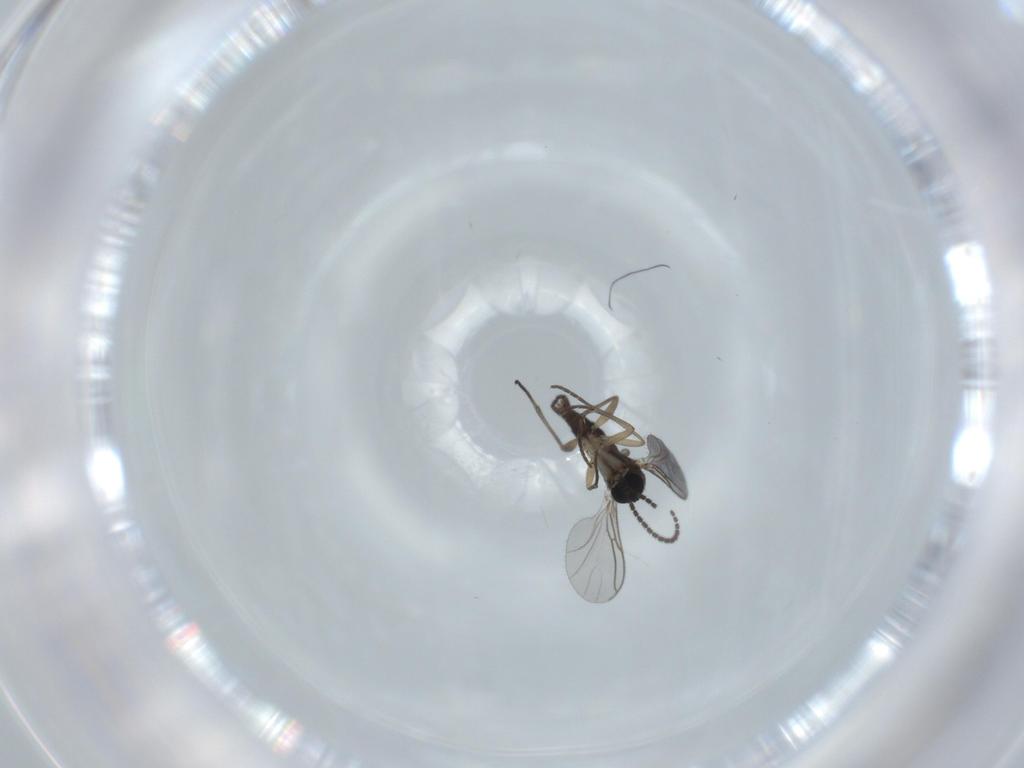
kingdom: Animalia
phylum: Arthropoda
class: Insecta
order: Diptera
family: Sciaridae
